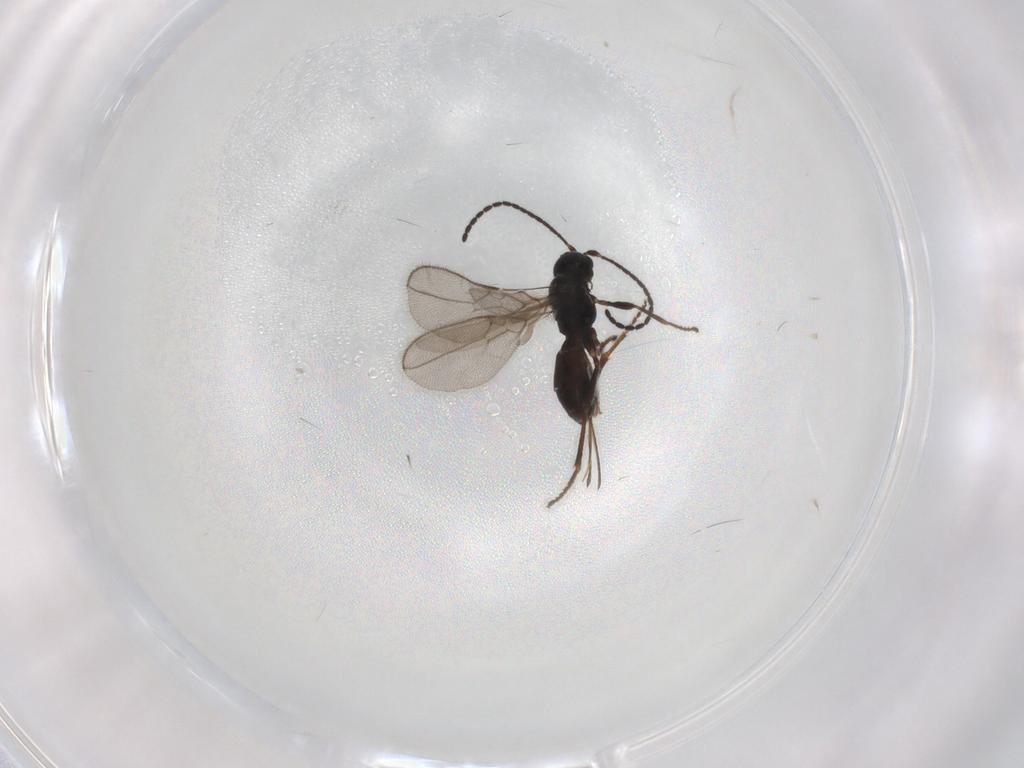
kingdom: Animalia
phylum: Arthropoda
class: Insecta
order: Hymenoptera
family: Braconidae
